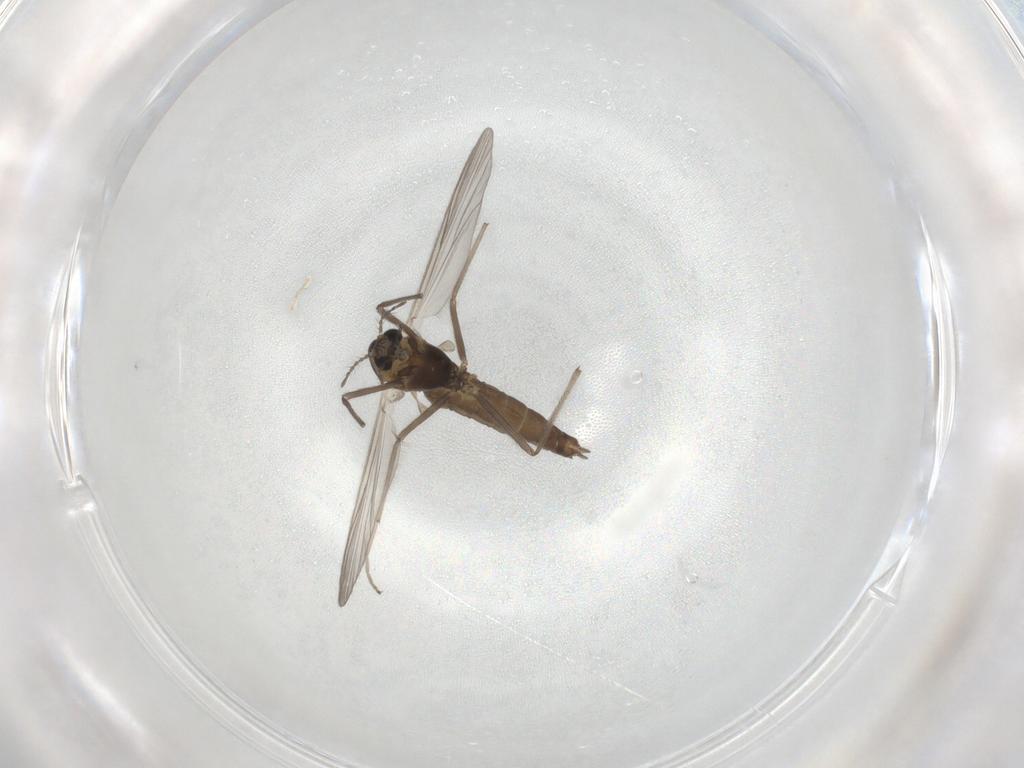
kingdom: Animalia
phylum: Arthropoda
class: Insecta
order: Diptera
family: Chironomidae
